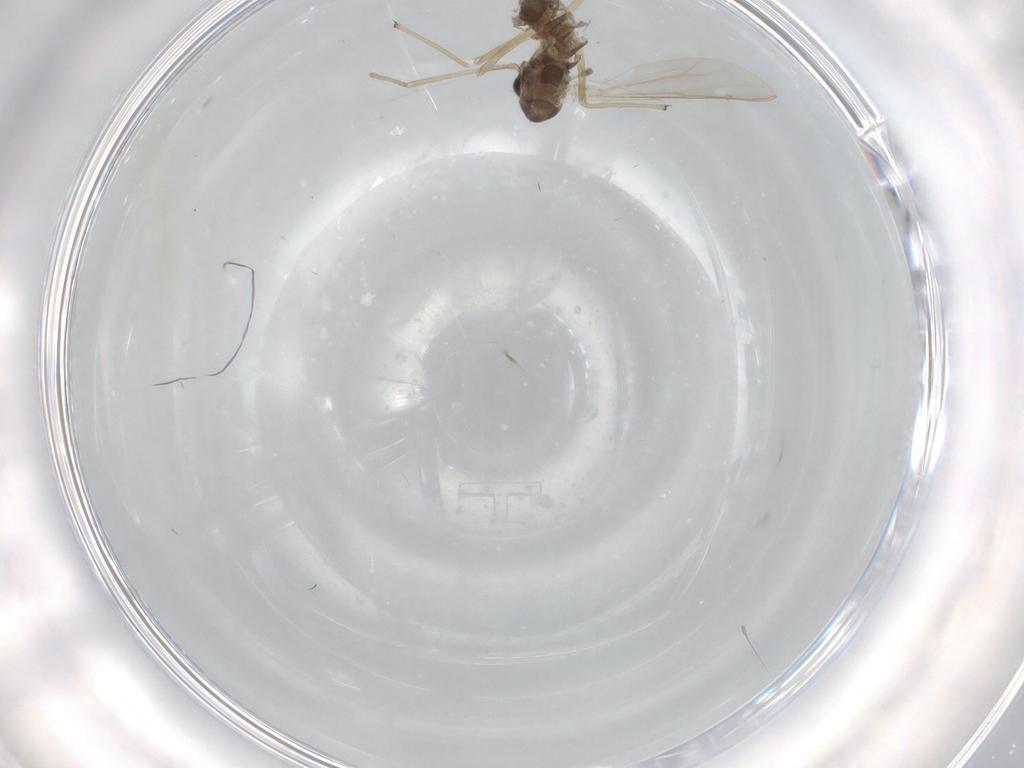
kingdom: Animalia
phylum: Arthropoda
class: Insecta
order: Diptera
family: Chironomidae
